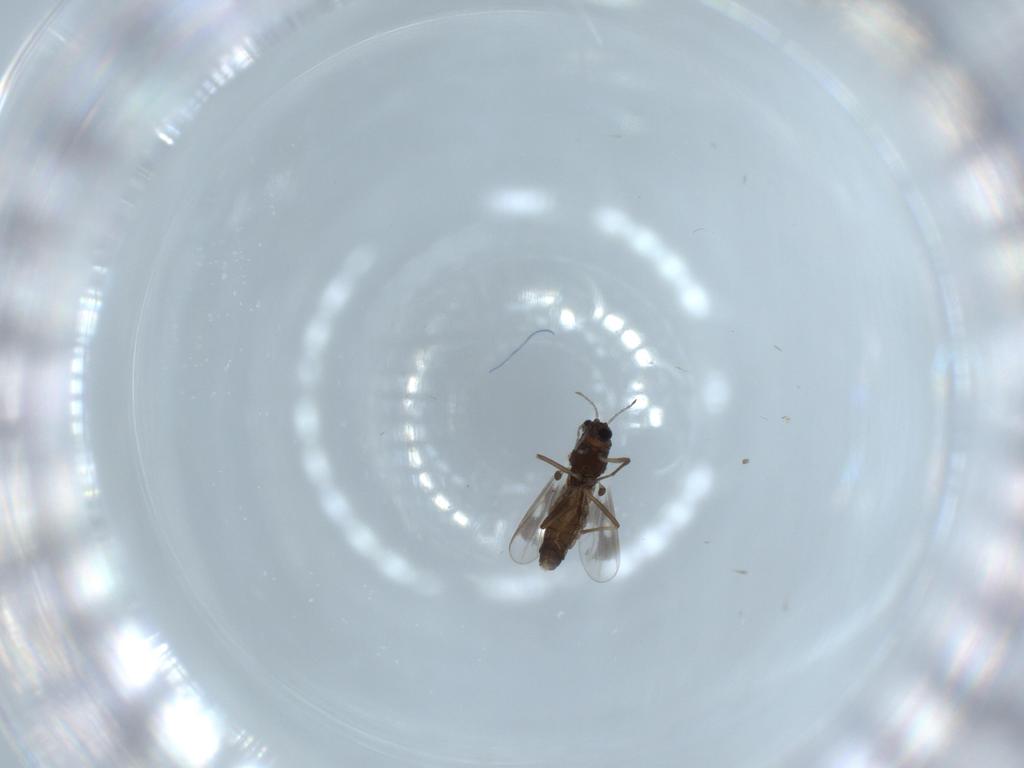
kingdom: Animalia
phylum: Arthropoda
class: Insecta
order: Diptera
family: Chironomidae
